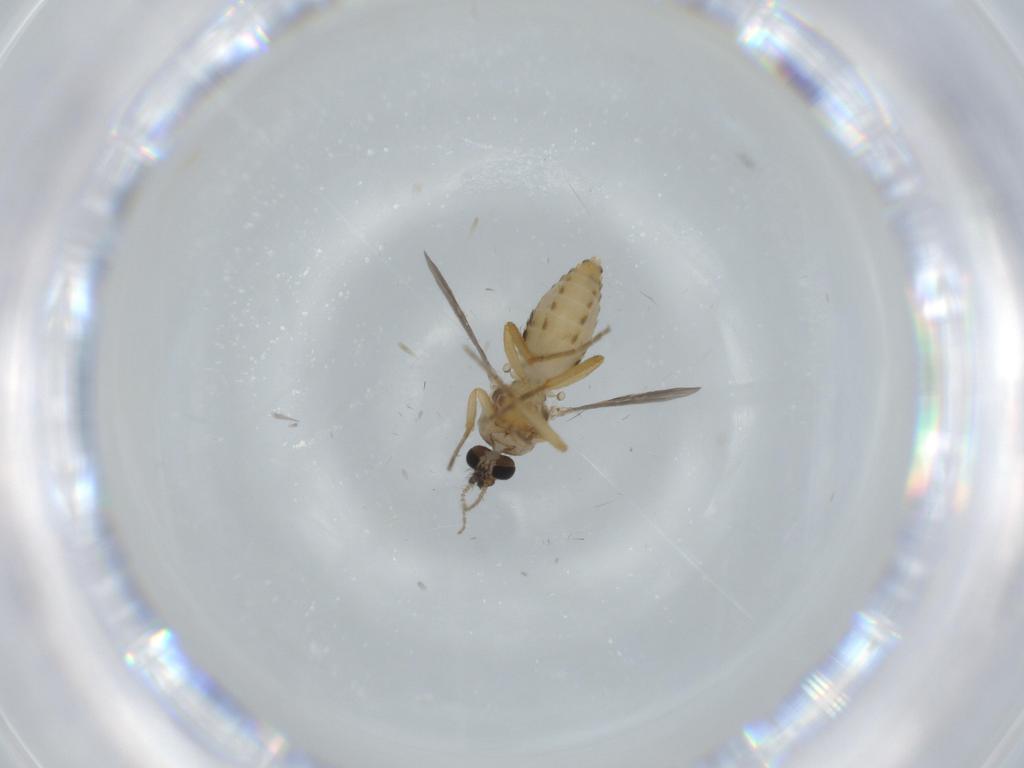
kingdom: Animalia
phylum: Arthropoda
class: Insecta
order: Diptera
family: Ceratopogonidae
